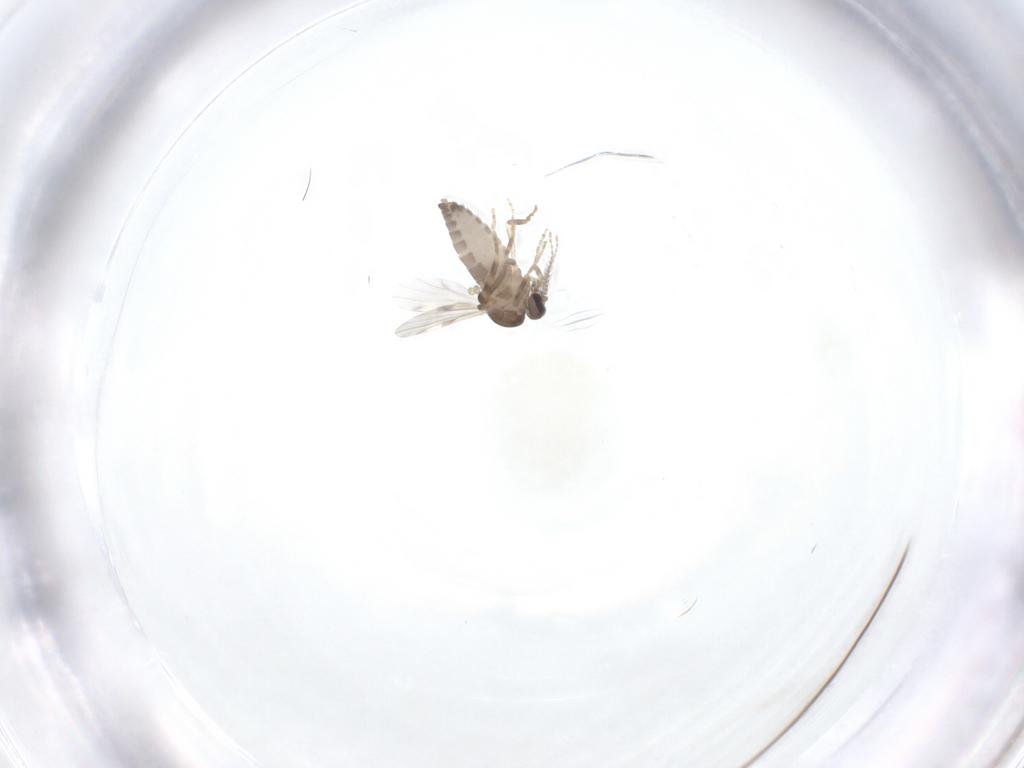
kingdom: Animalia
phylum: Arthropoda
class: Insecta
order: Diptera
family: Ceratopogonidae
